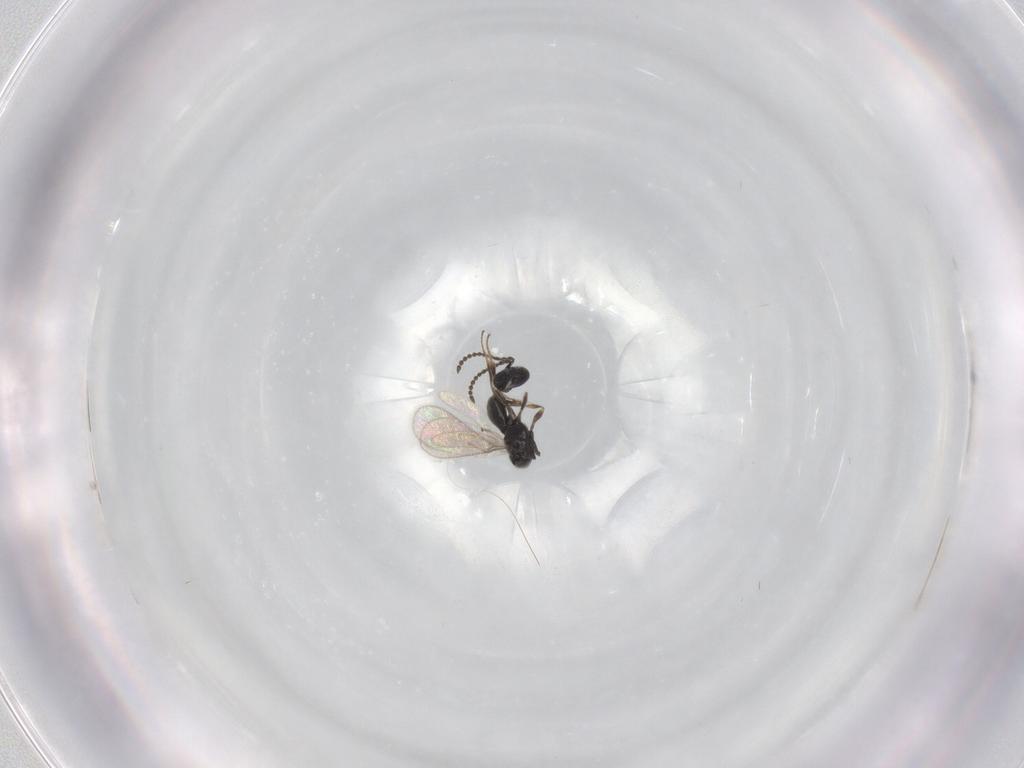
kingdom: Animalia
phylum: Arthropoda
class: Insecta
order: Hymenoptera
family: Scelionidae
